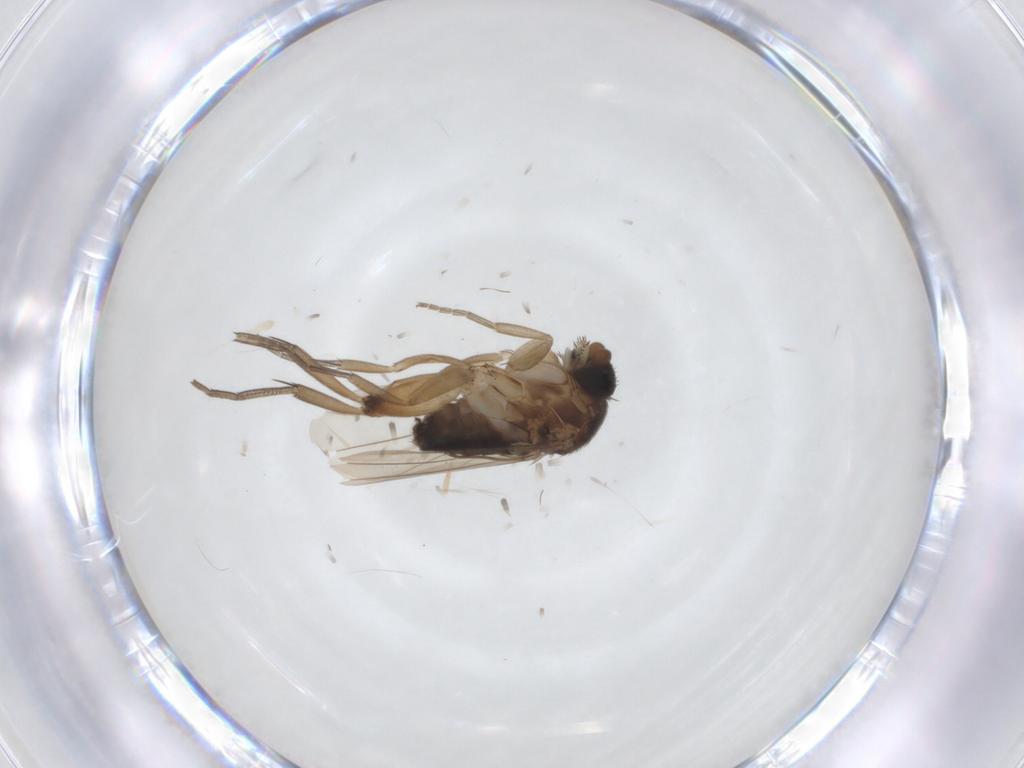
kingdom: Animalia
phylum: Arthropoda
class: Insecta
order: Diptera
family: Phoridae
